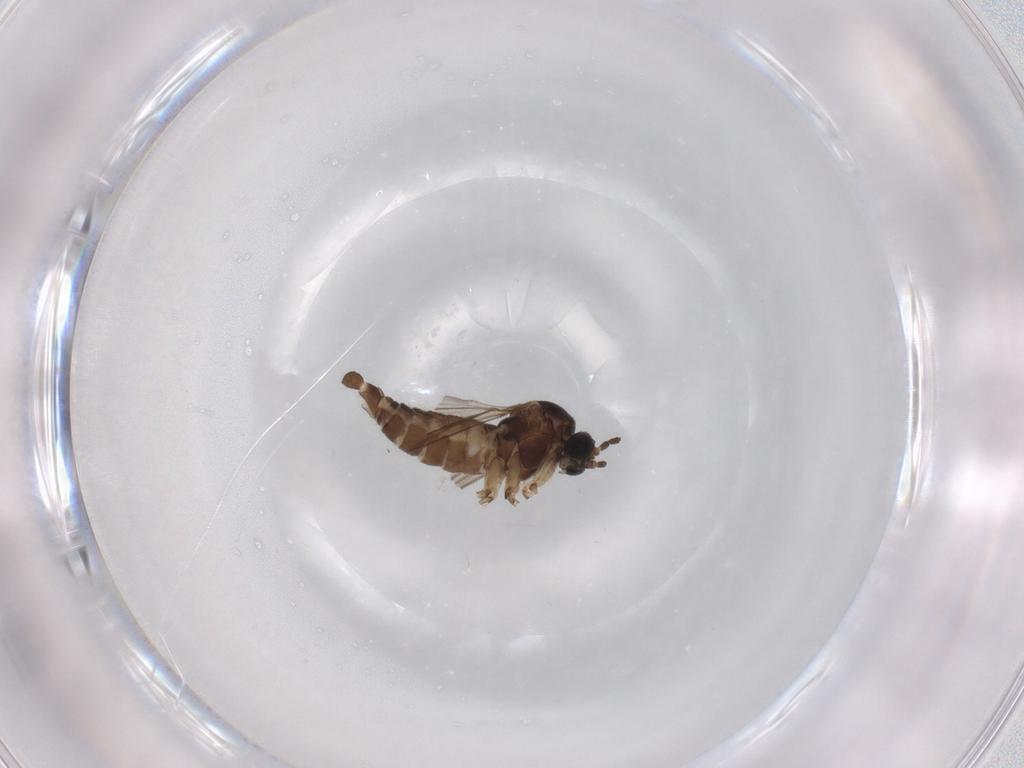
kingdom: Animalia
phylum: Arthropoda
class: Insecta
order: Diptera
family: Sciaridae
